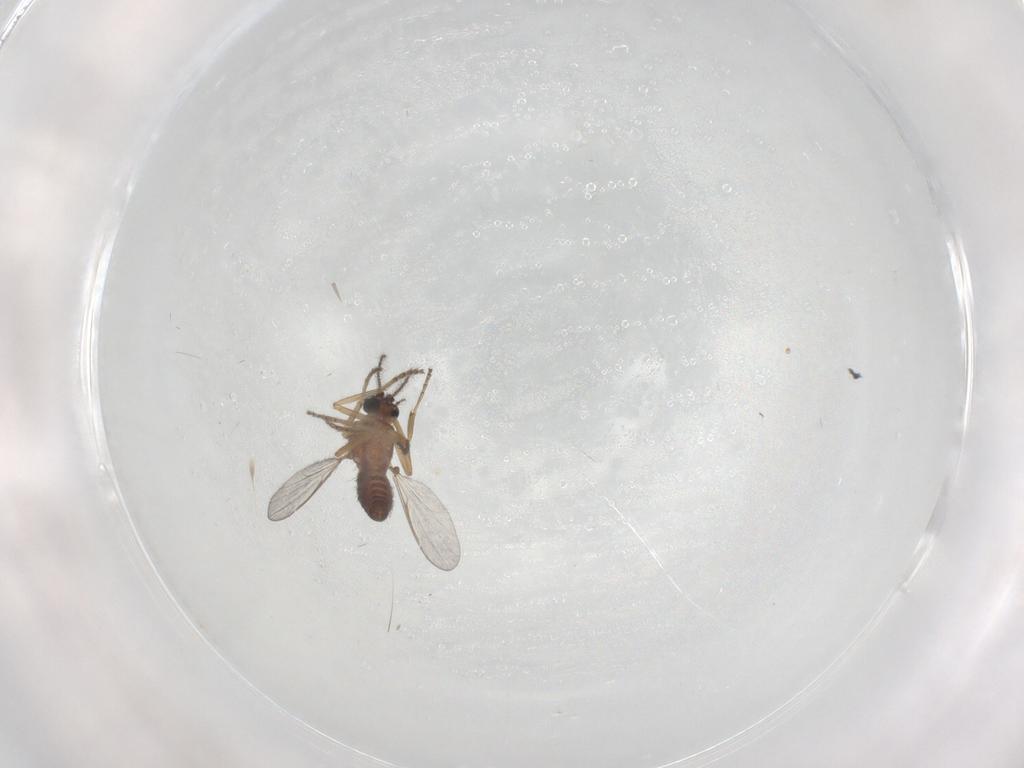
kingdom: Animalia
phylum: Arthropoda
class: Insecta
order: Diptera
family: Ceratopogonidae
